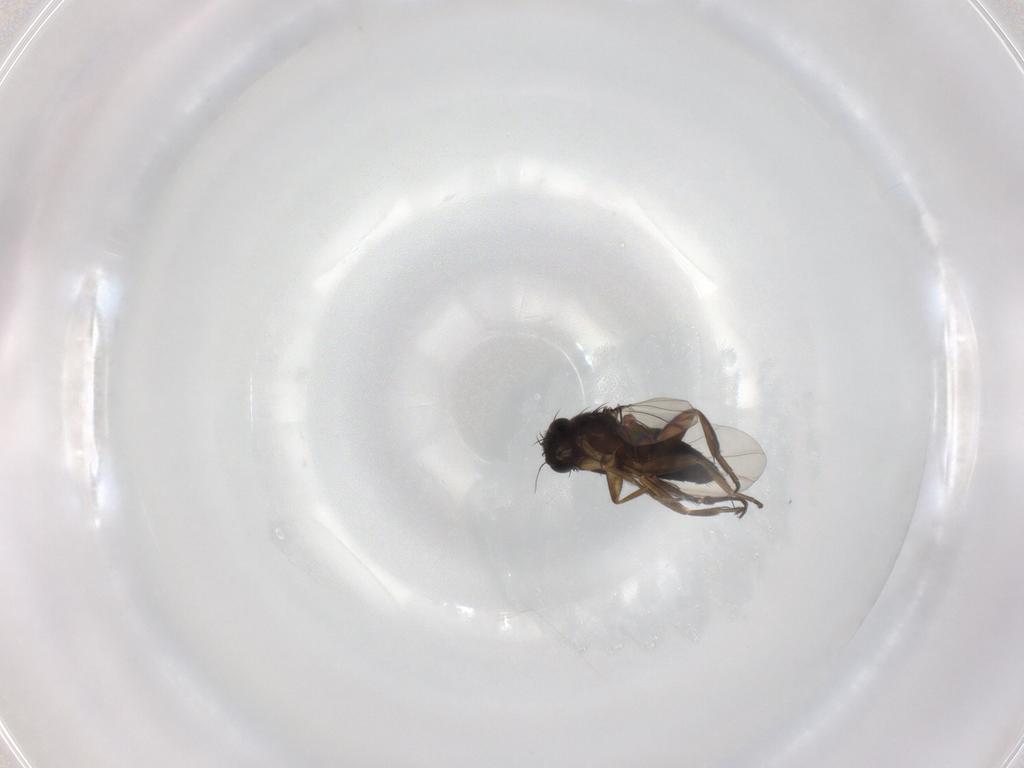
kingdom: Animalia
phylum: Arthropoda
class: Insecta
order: Diptera
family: Phoridae
